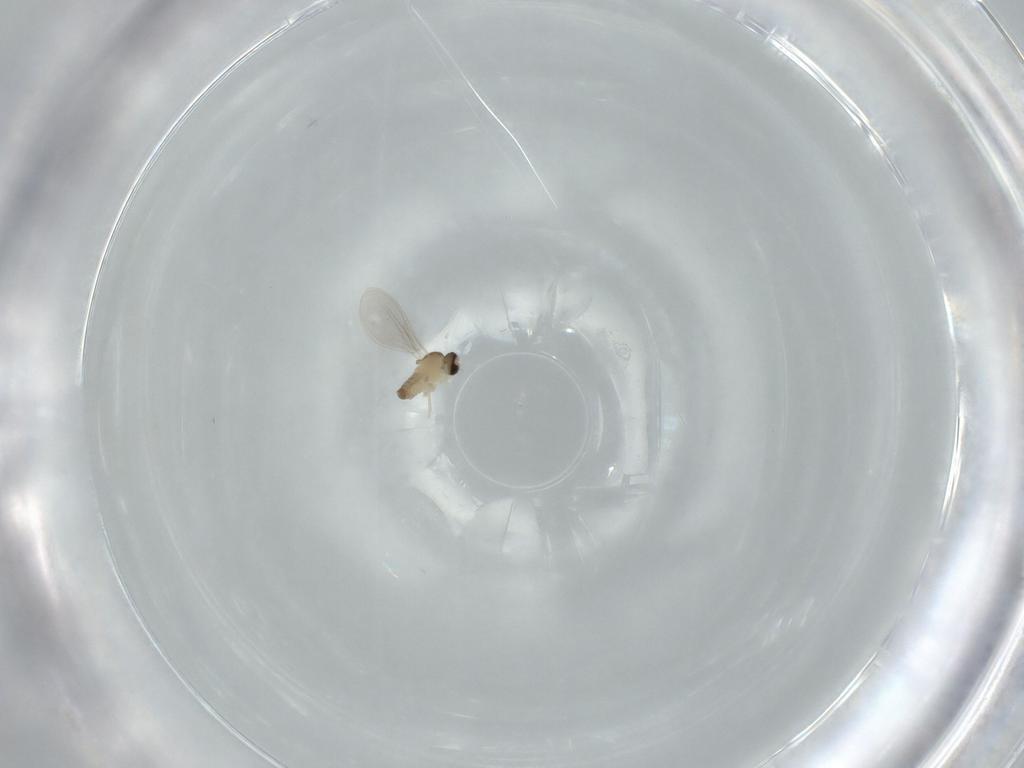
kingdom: Animalia
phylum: Arthropoda
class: Insecta
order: Diptera
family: Cecidomyiidae
